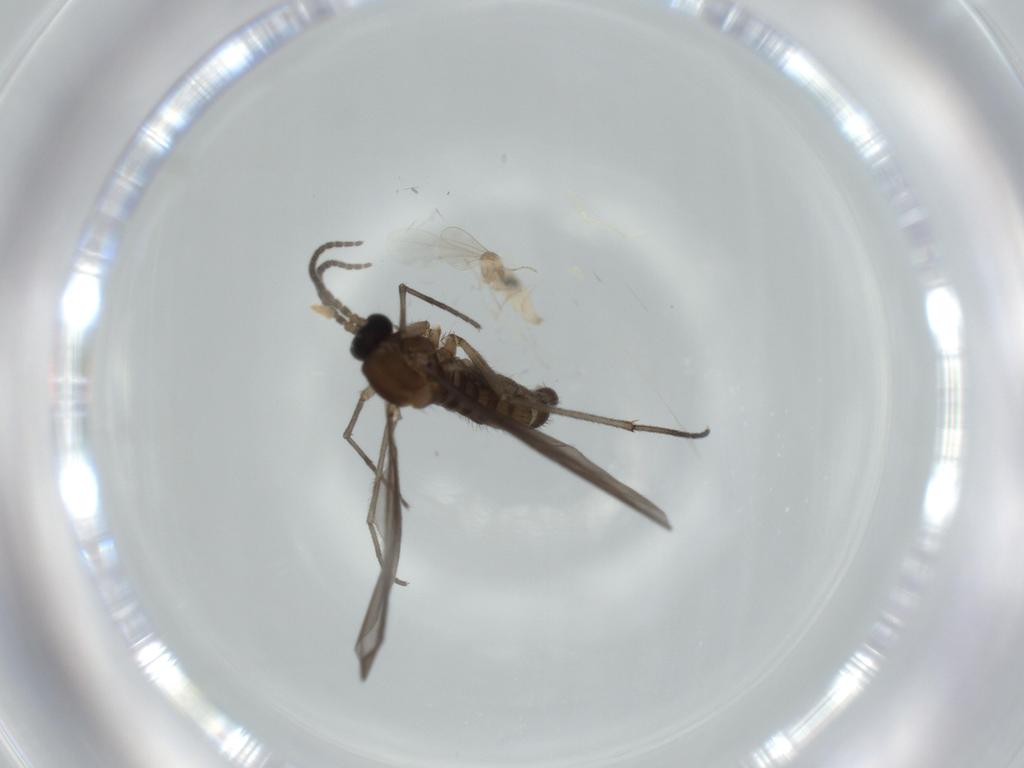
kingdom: Animalia
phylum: Arthropoda
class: Insecta
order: Diptera
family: Sciaridae
